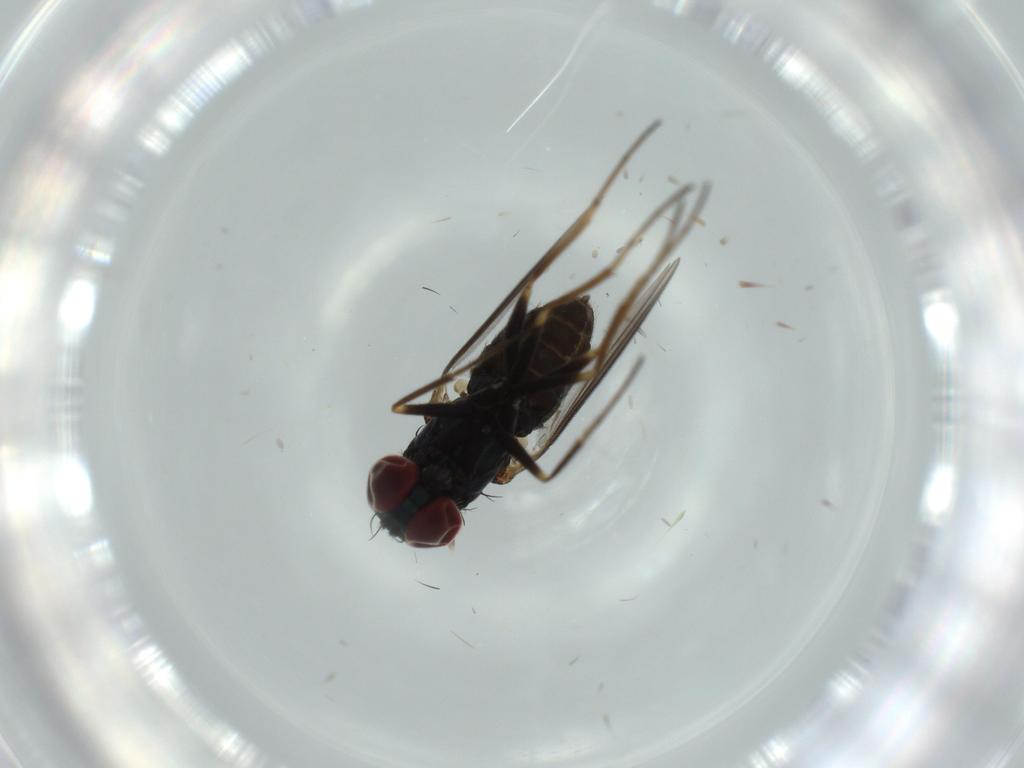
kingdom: Animalia
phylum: Arthropoda
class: Insecta
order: Diptera
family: Dolichopodidae
